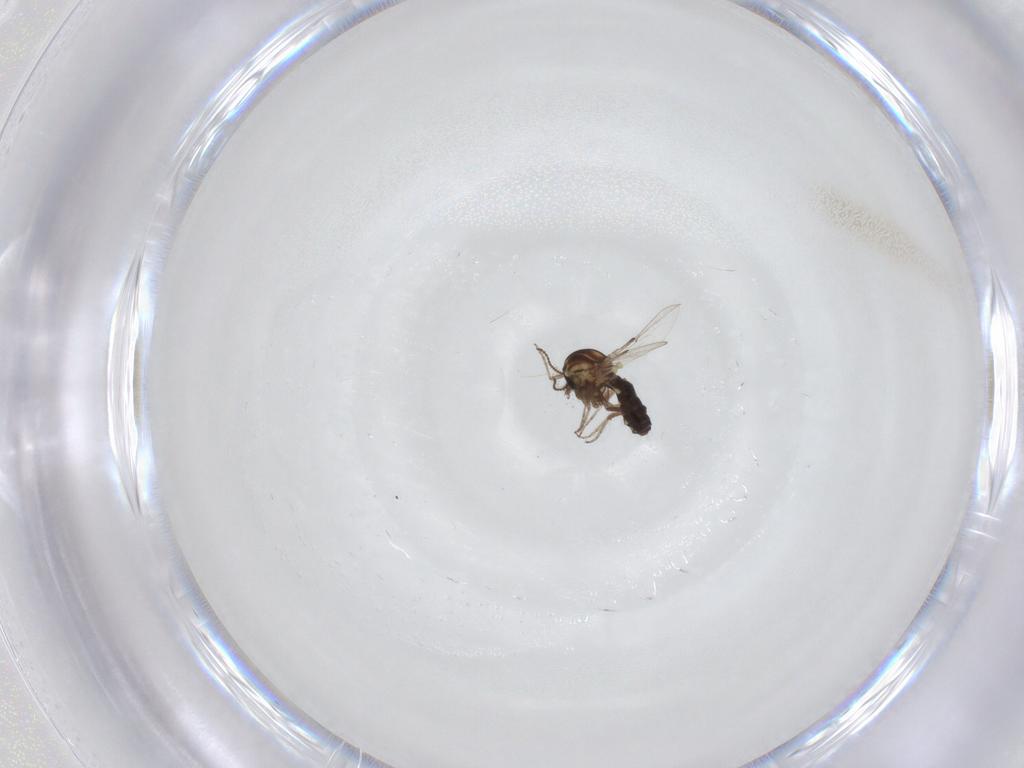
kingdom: Animalia
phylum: Arthropoda
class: Insecta
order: Diptera
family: Ceratopogonidae
